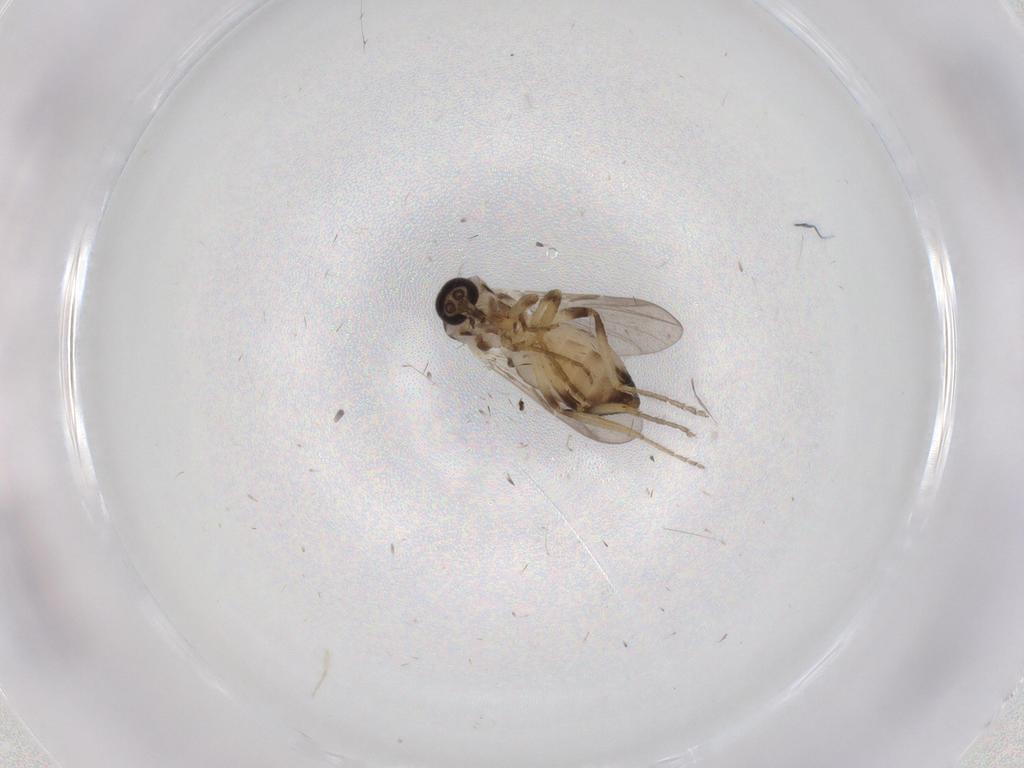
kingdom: Animalia
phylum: Arthropoda
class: Insecta
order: Diptera
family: Ceratopogonidae
